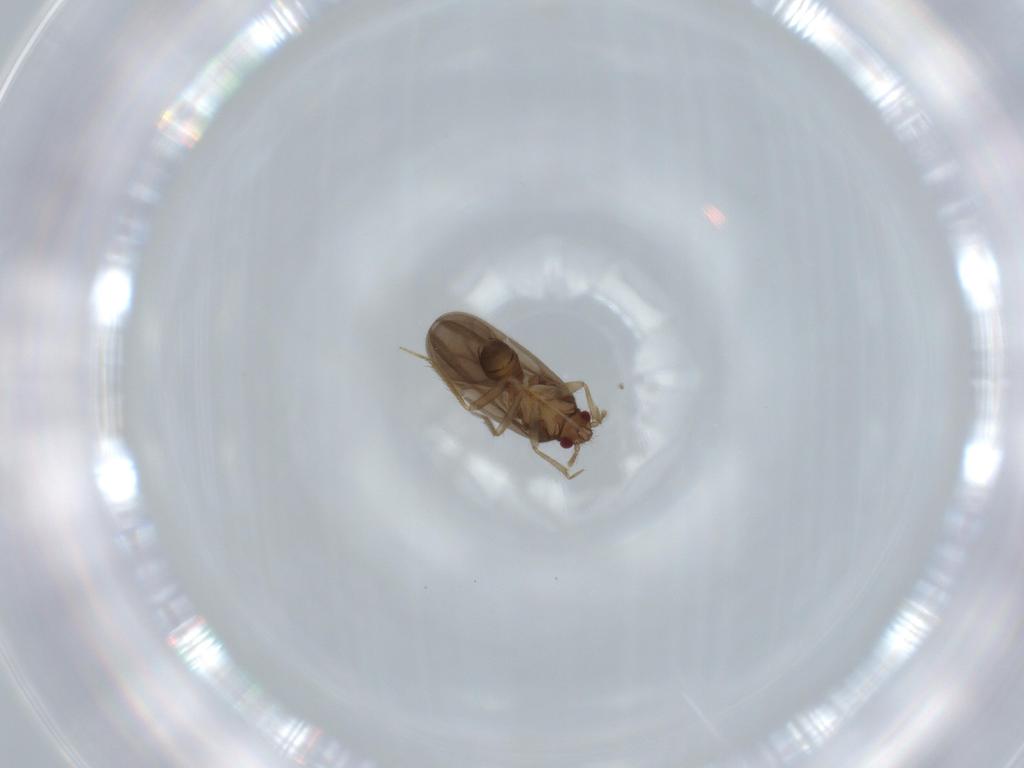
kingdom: Animalia
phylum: Arthropoda
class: Insecta
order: Hemiptera
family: Ceratocombidae
